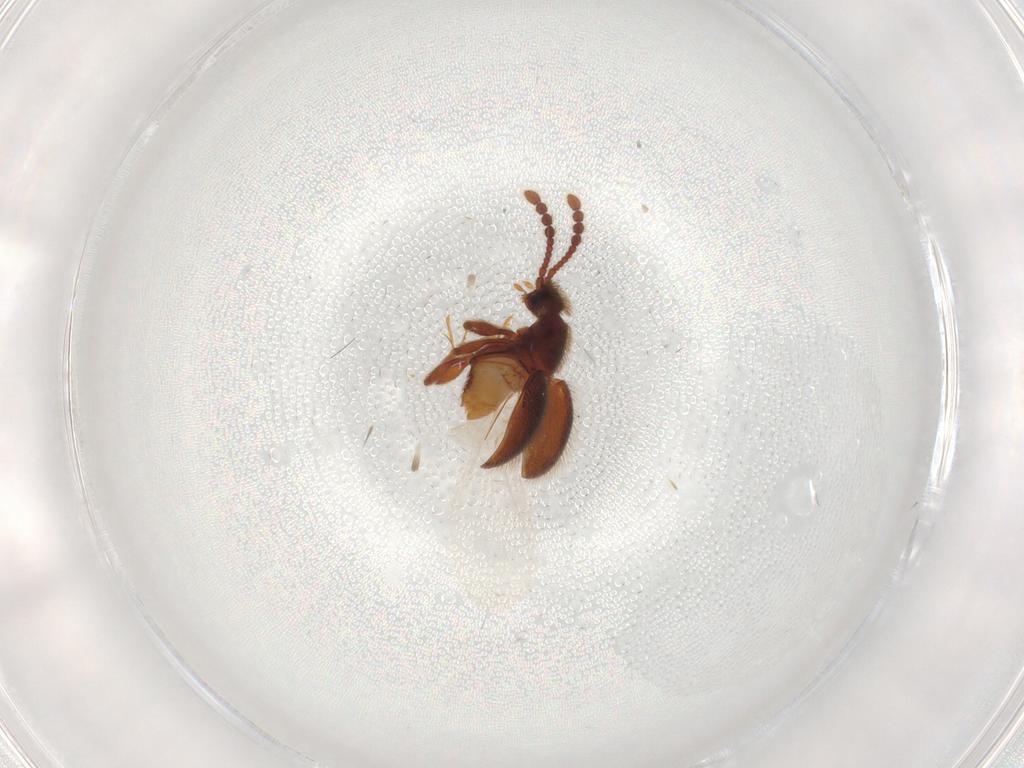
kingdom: Animalia
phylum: Arthropoda
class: Insecta
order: Coleoptera
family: Staphylinidae
